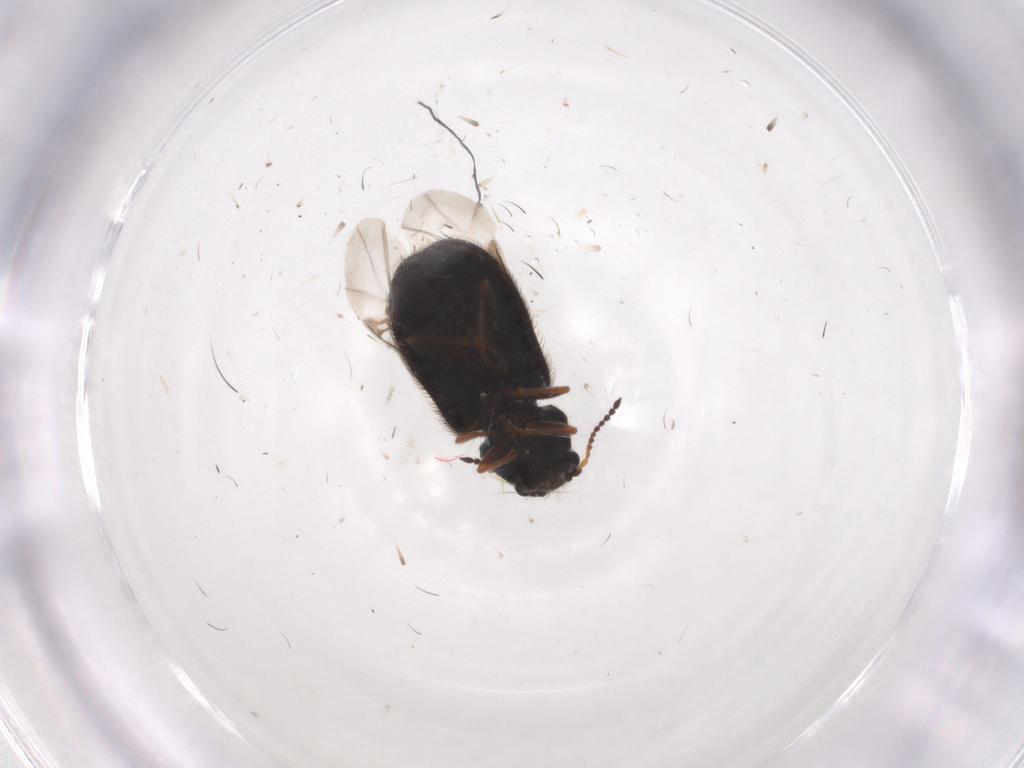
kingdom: Animalia
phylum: Arthropoda
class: Insecta
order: Coleoptera
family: Melyridae
